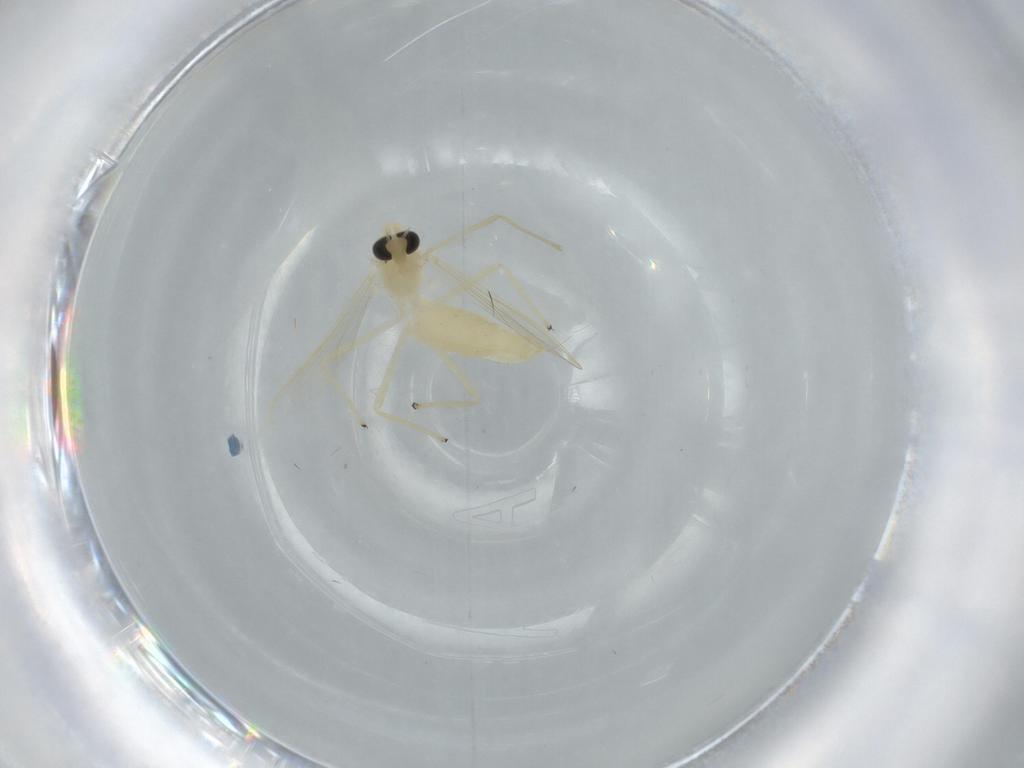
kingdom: Animalia
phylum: Arthropoda
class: Insecta
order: Diptera
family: Chironomidae
